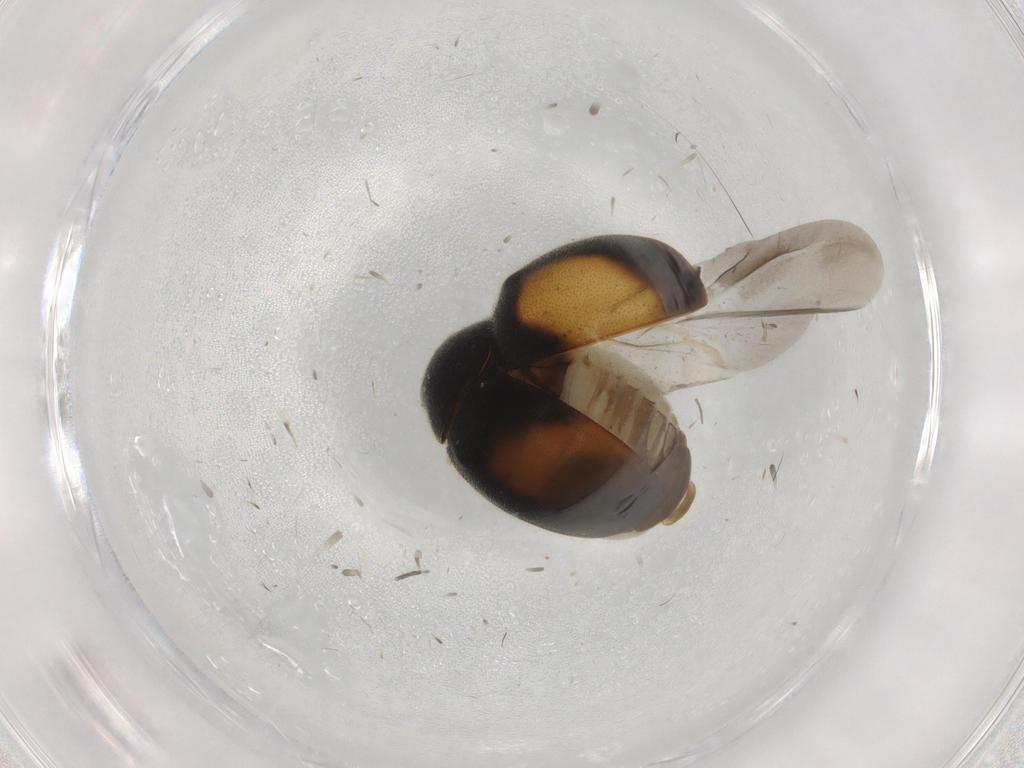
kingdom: Animalia
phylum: Arthropoda
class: Insecta
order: Coleoptera
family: Coccinellidae
